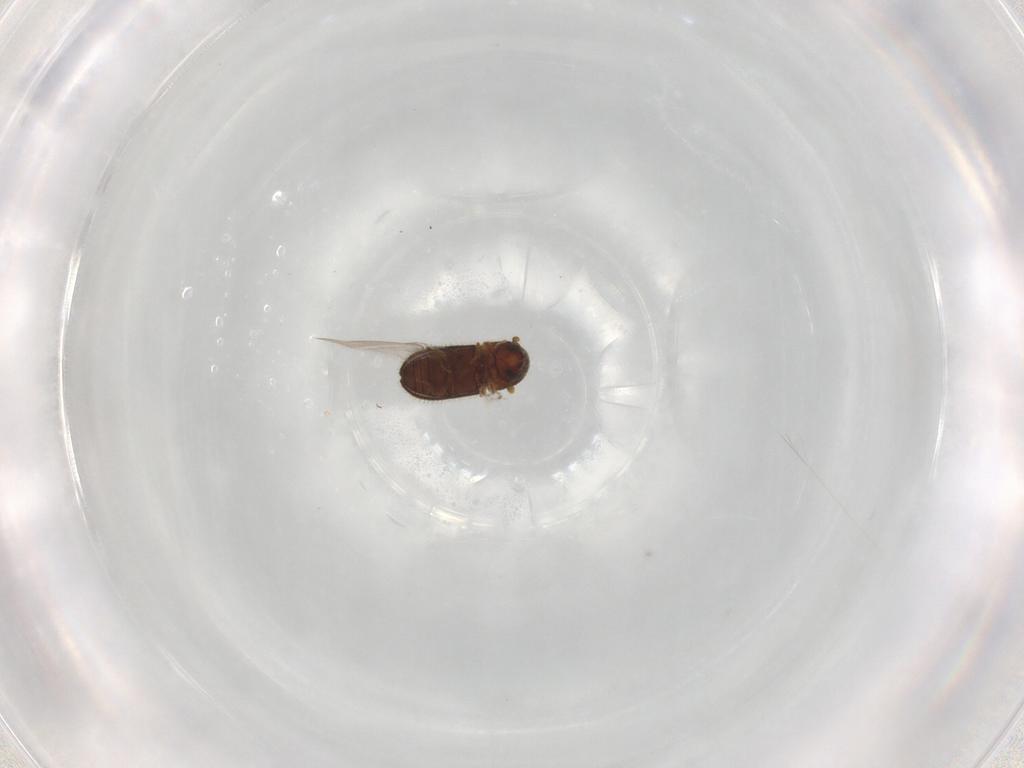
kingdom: Animalia
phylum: Arthropoda
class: Insecta
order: Coleoptera
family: Curculionidae
